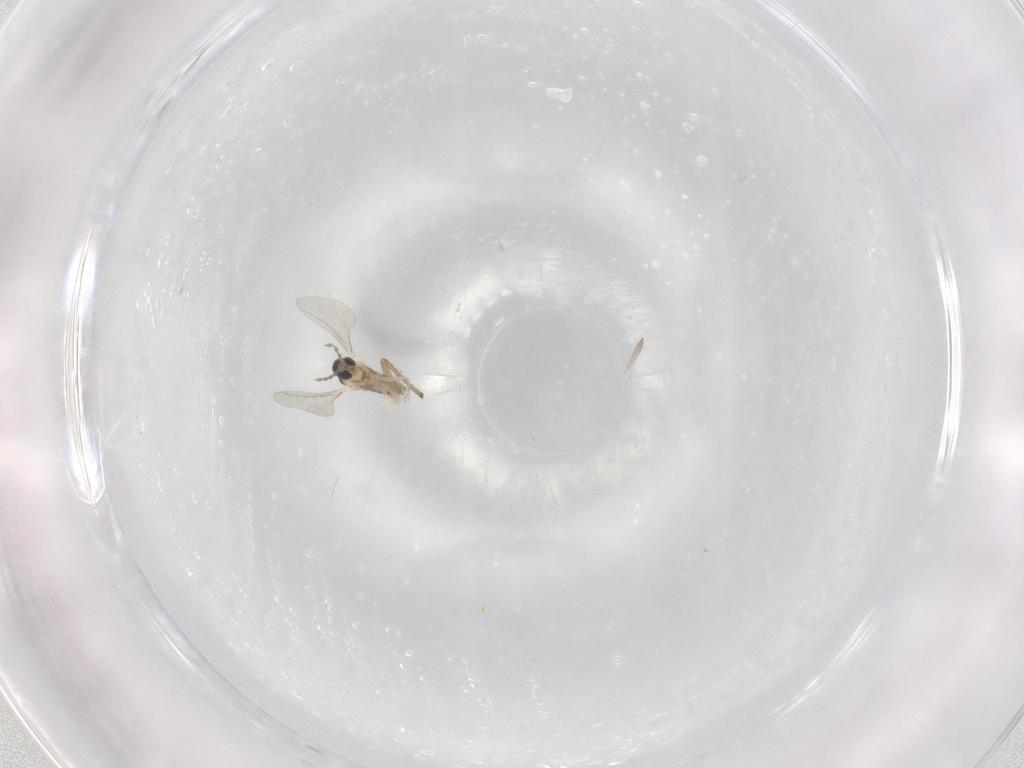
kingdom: Animalia
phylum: Arthropoda
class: Insecta
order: Diptera
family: Cecidomyiidae
